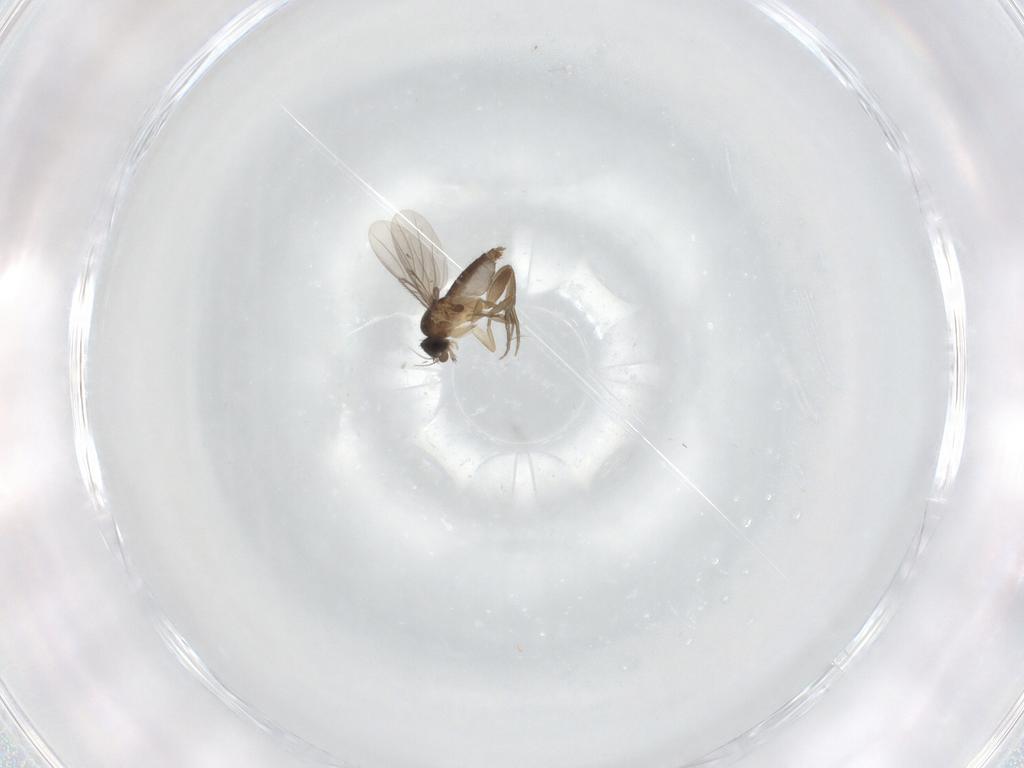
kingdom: Animalia
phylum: Arthropoda
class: Insecta
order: Diptera
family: Phoridae
